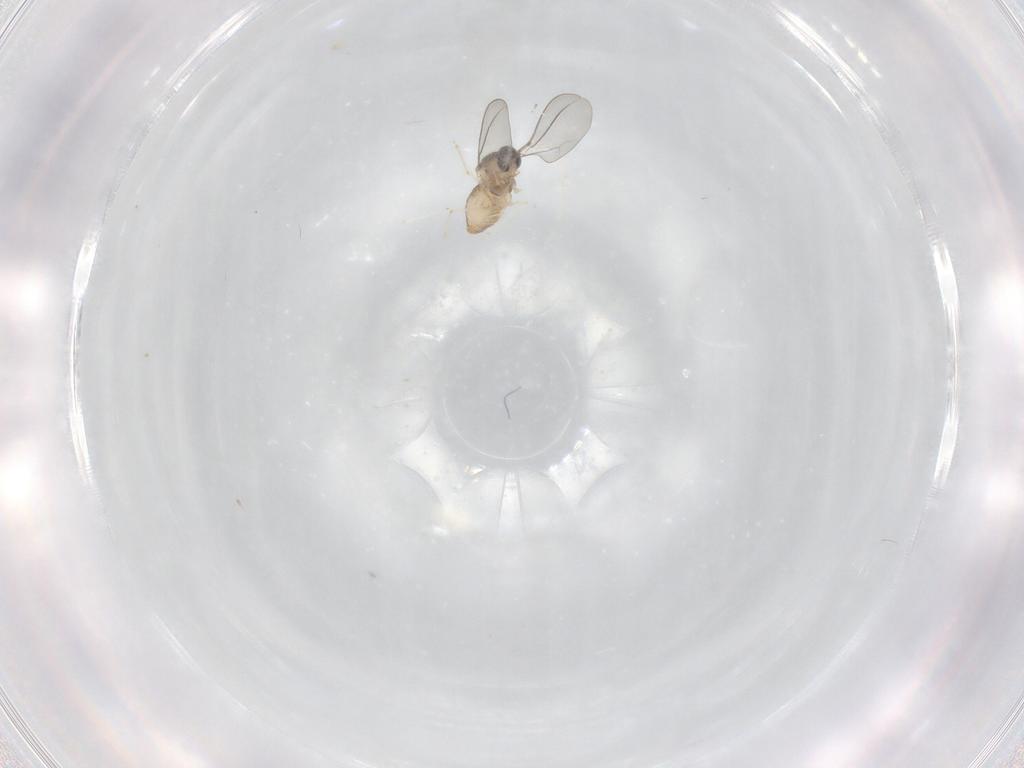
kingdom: Animalia
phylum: Arthropoda
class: Insecta
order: Diptera
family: Cecidomyiidae
